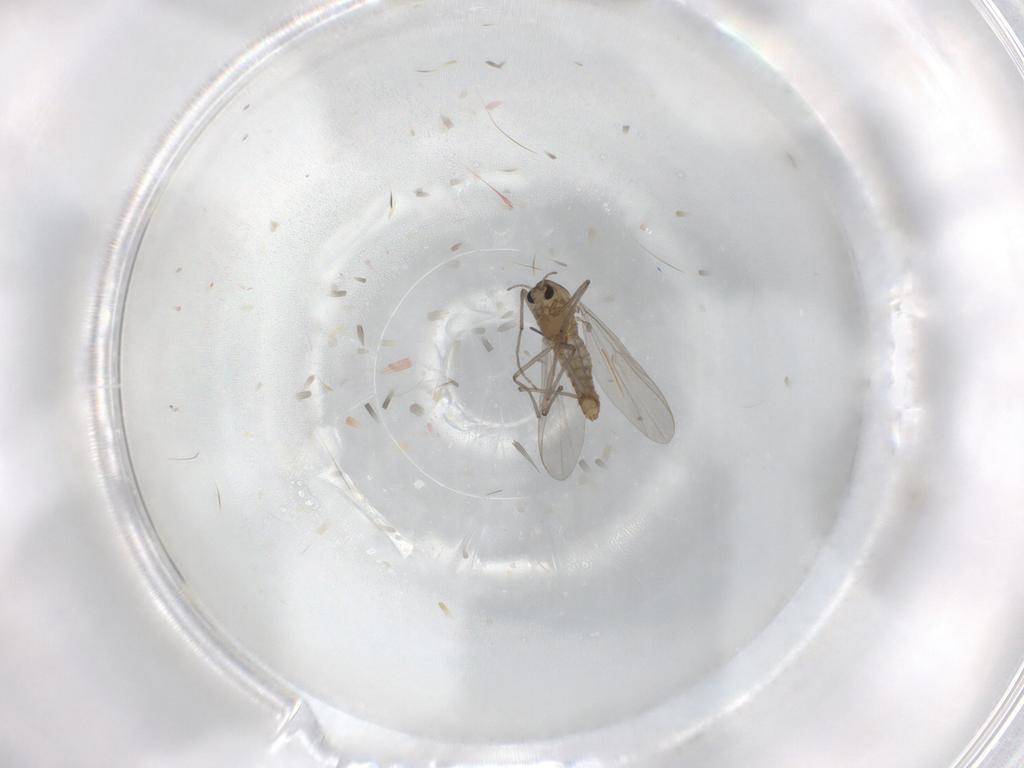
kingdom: Animalia
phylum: Arthropoda
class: Insecta
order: Diptera
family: Chironomidae
